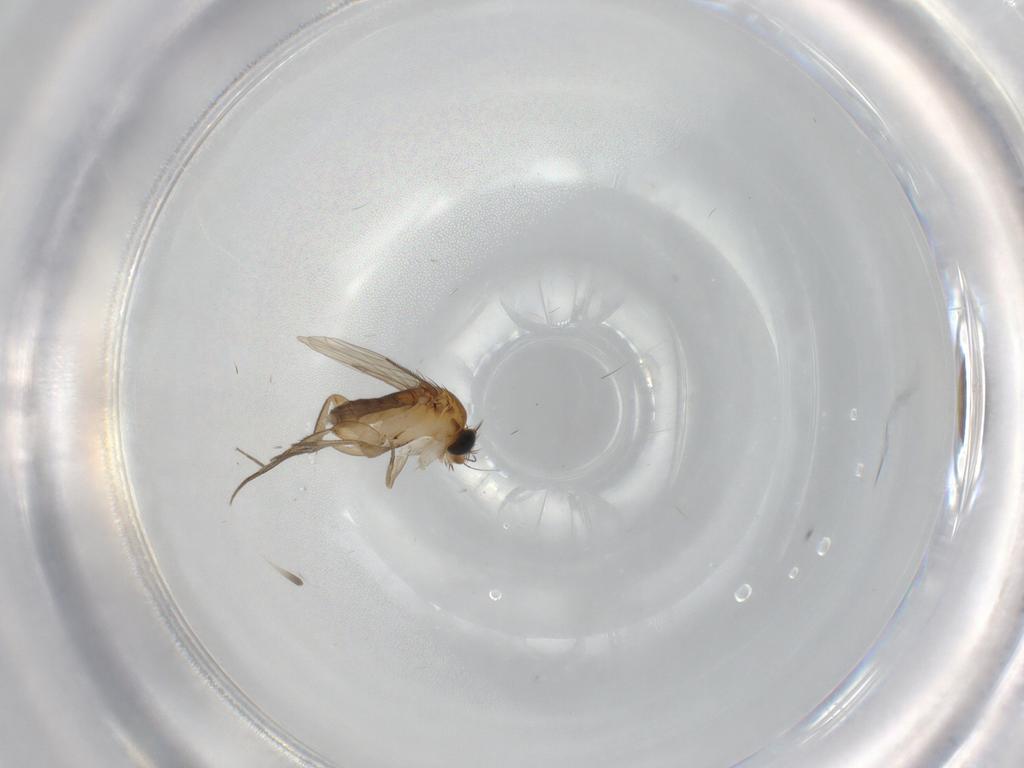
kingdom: Animalia
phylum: Arthropoda
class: Insecta
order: Diptera
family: Phoridae
